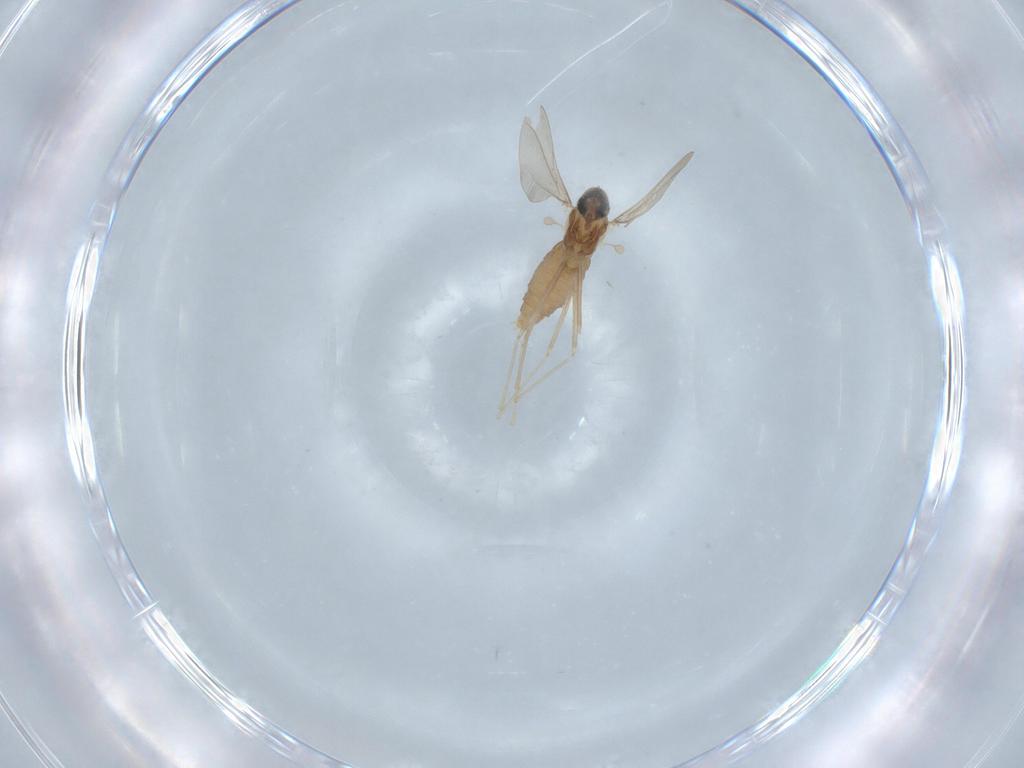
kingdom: Animalia
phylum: Arthropoda
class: Insecta
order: Diptera
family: Cecidomyiidae
